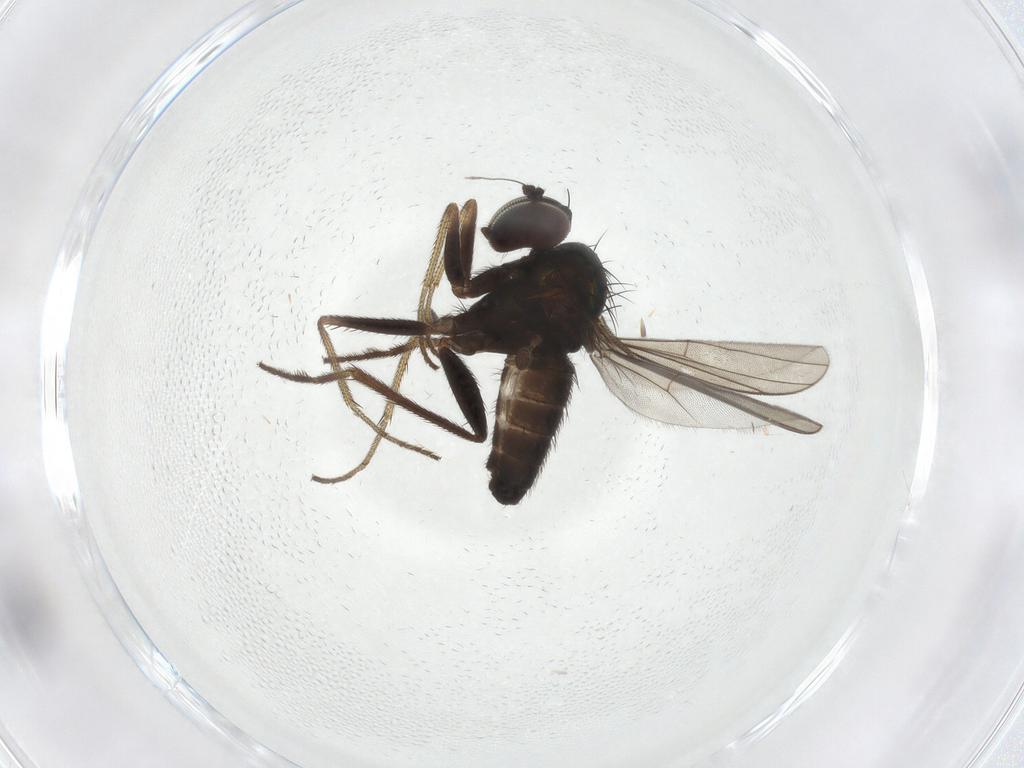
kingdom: Animalia
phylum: Arthropoda
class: Insecta
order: Diptera
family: Dolichopodidae
